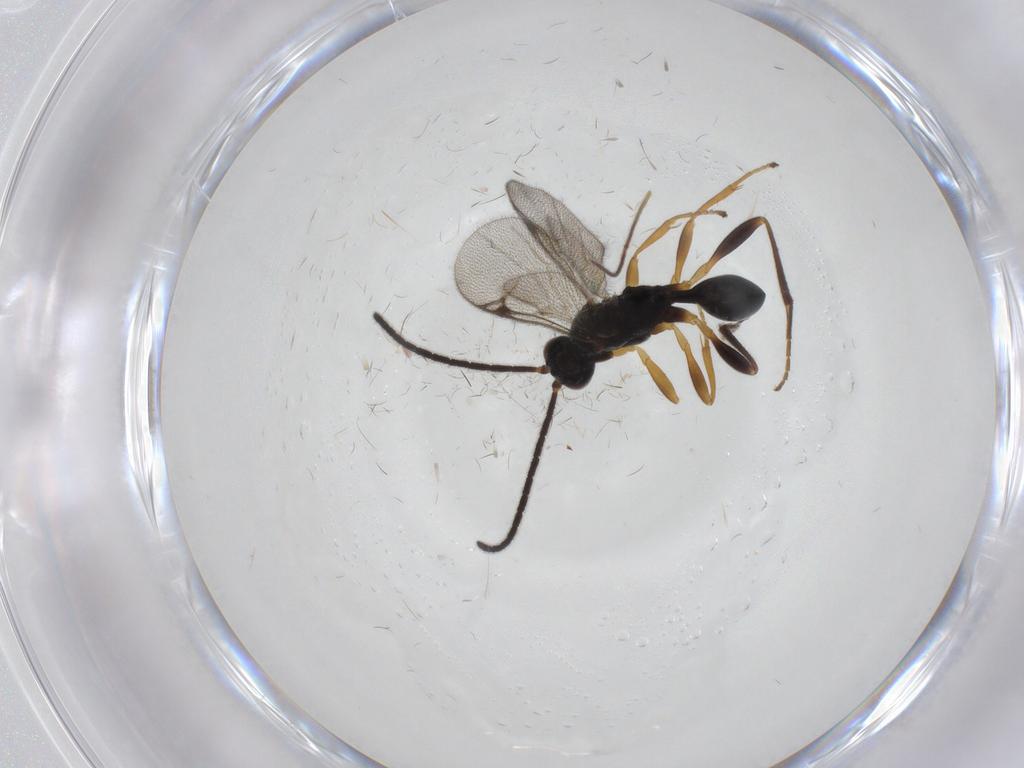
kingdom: Animalia
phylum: Arthropoda
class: Insecta
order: Hymenoptera
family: Proctotrupidae
